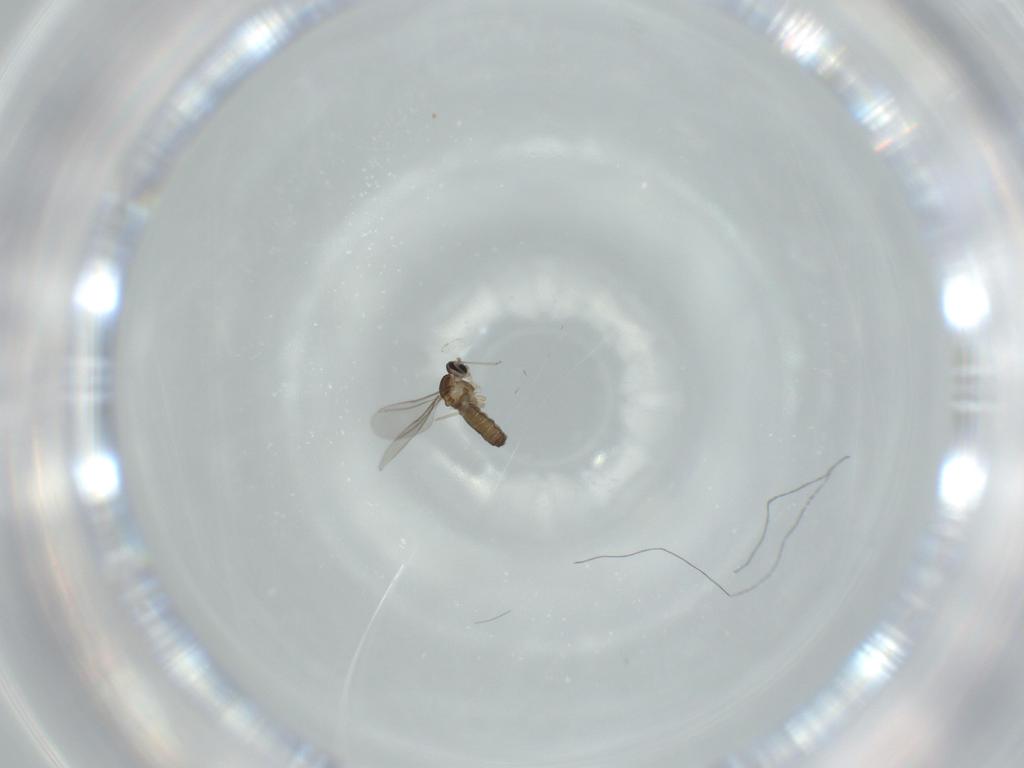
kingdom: Animalia
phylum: Arthropoda
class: Insecta
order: Diptera
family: Cecidomyiidae
